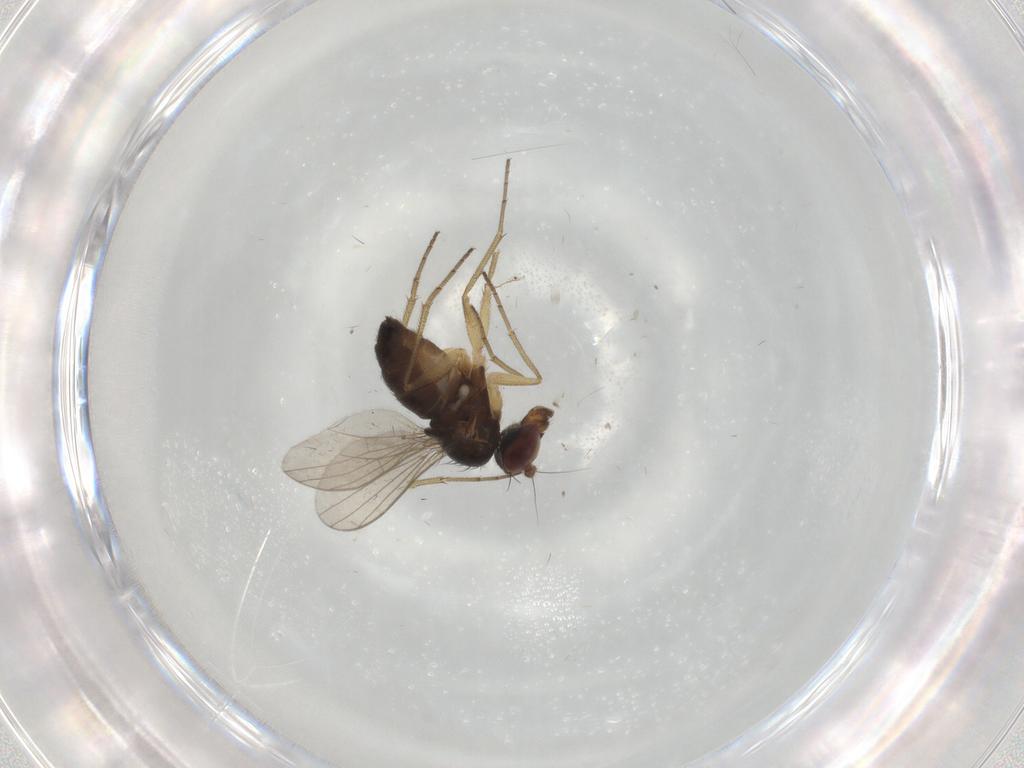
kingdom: Animalia
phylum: Arthropoda
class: Insecta
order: Diptera
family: Dolichopodidae
